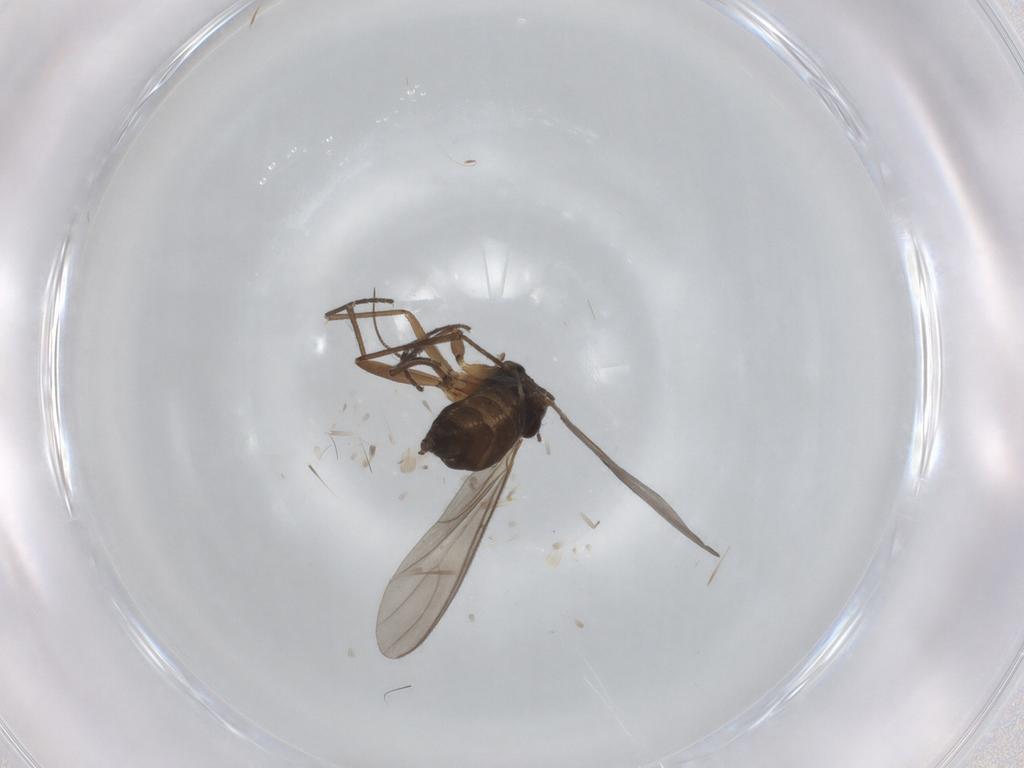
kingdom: Animalia
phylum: Arthropoda
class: Insecta
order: Diptera
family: Sciaridae
